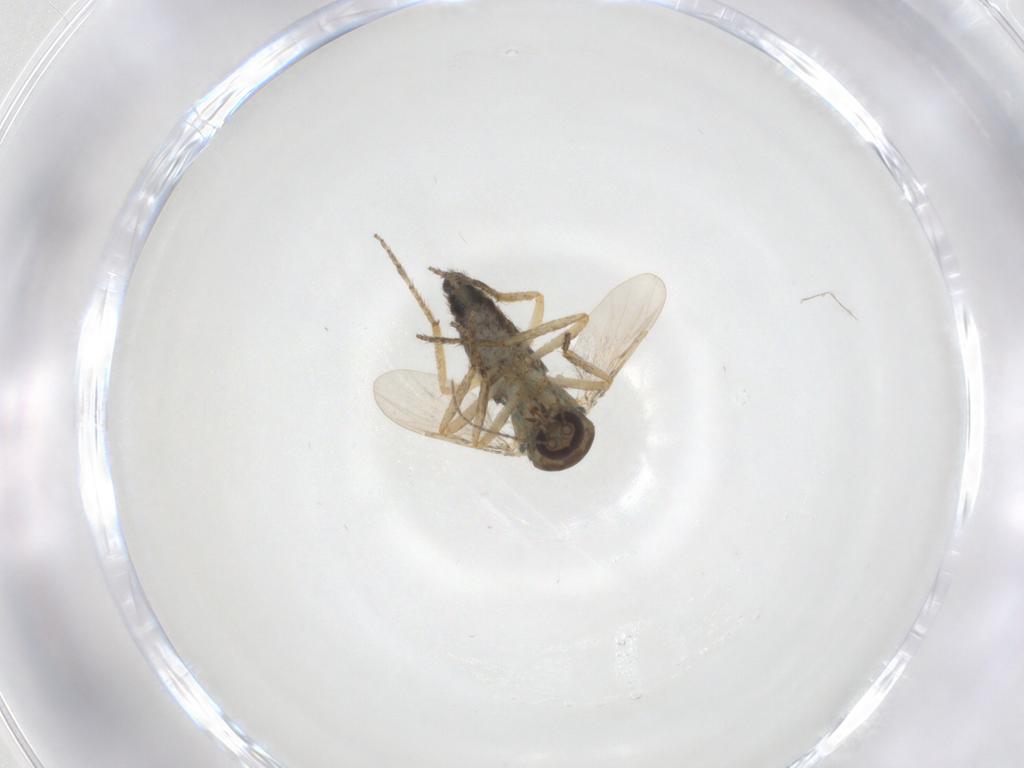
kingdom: Animalia
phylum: Arthropoda
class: Insecta
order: Diptera
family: Ceratopogonidae
